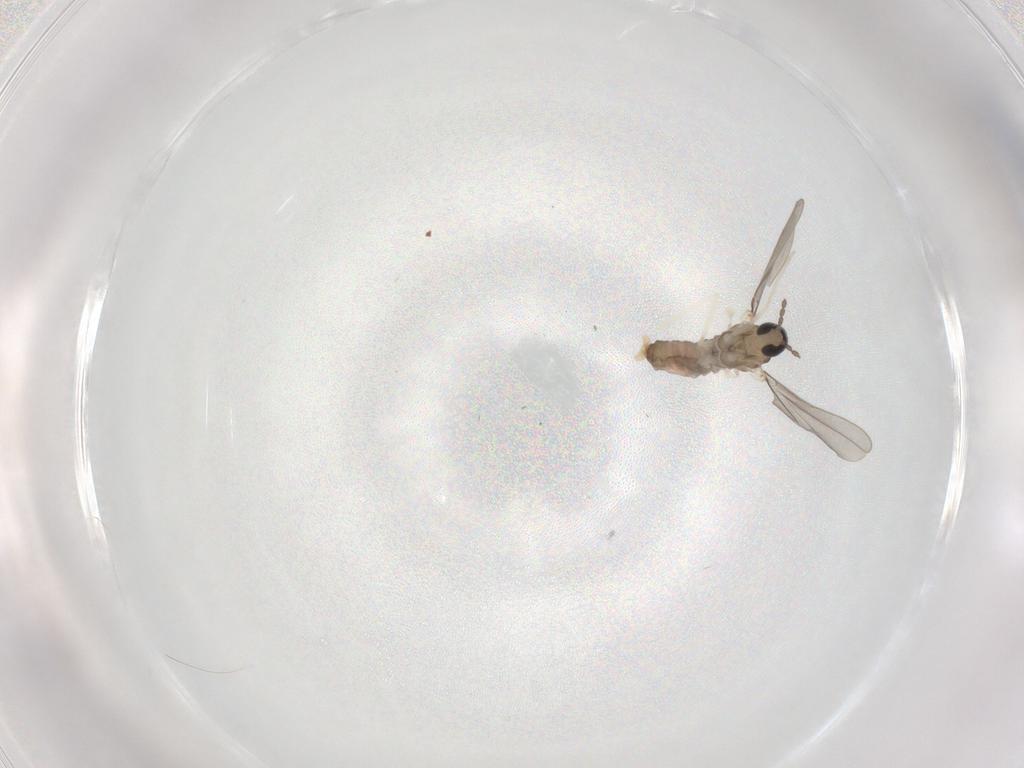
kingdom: Animalia
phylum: Arthropoda
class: Insecta
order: Diptera
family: Cecidomyiidae
